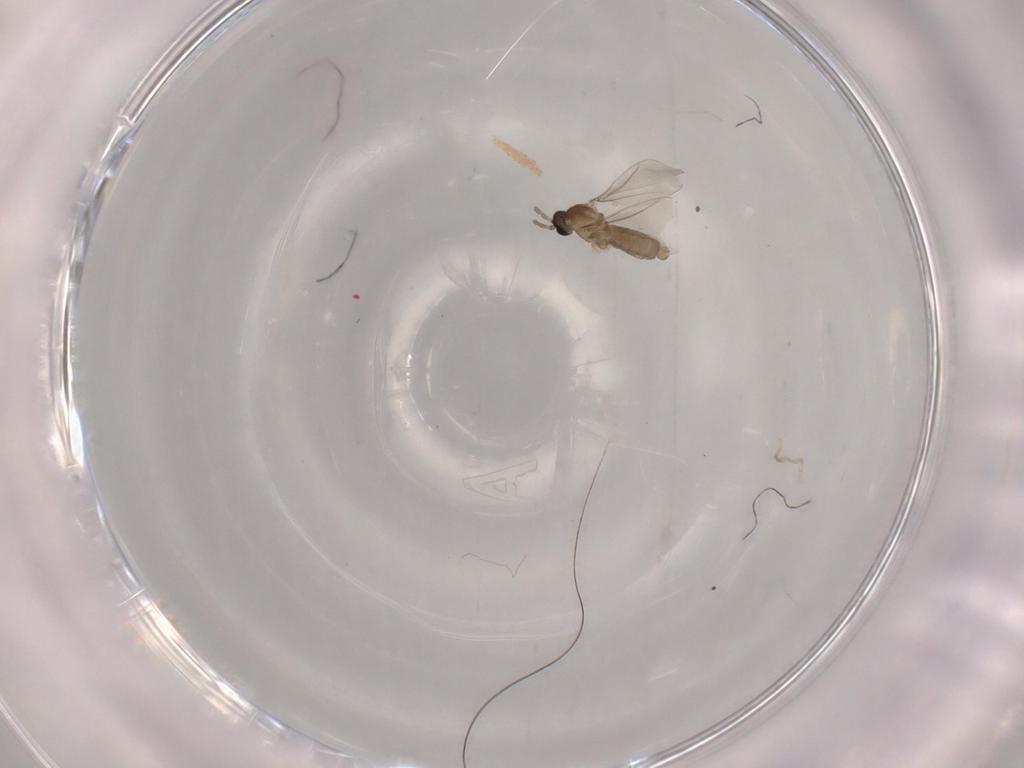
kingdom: Animalia
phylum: Arthropoda
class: Insecta
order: Diptera
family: Cecidomyiidae
